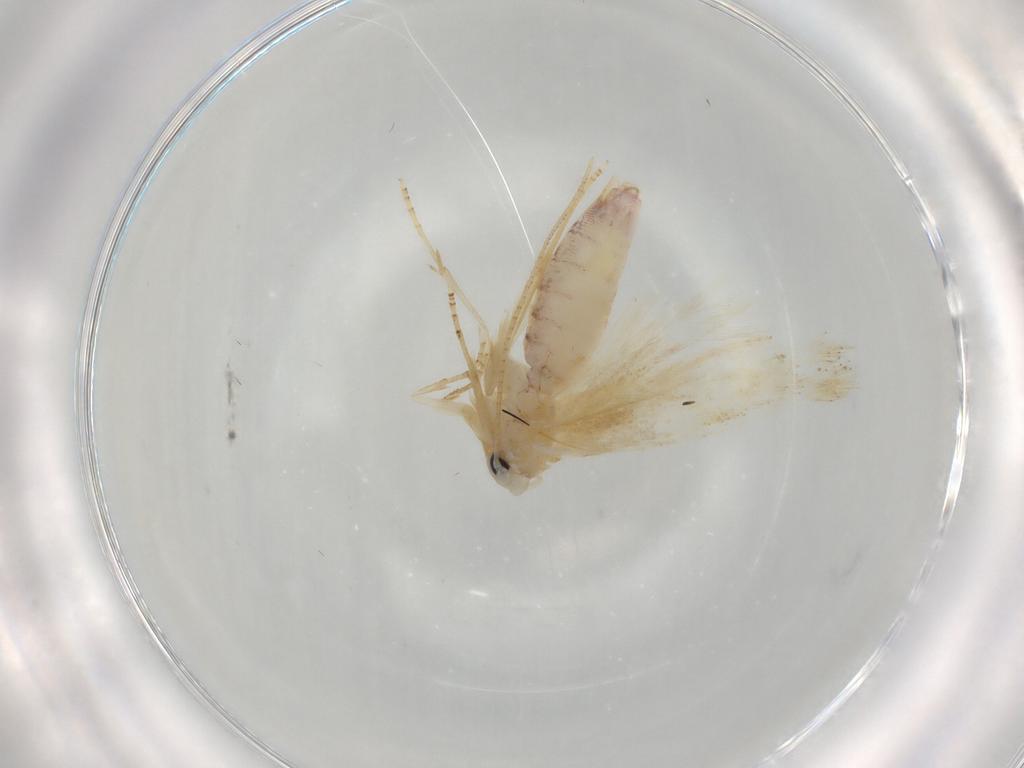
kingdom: Animalia
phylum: Arthropoda
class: Insecta
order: Lepidoptera
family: Bucculatricidae
